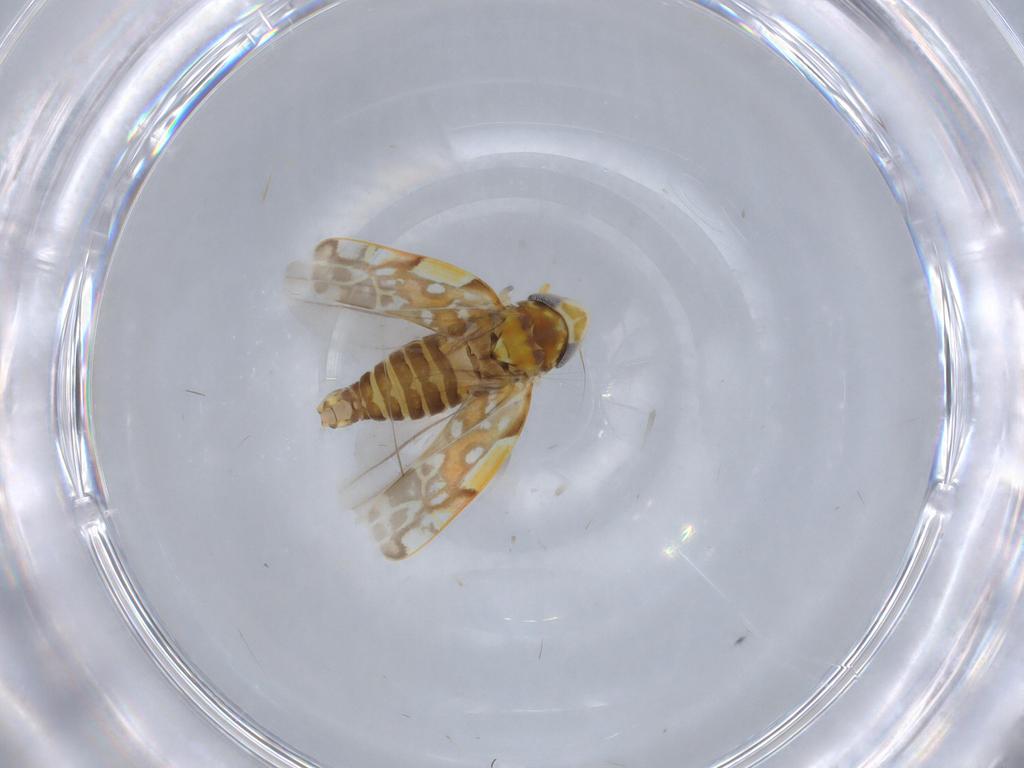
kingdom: Animalia
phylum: Arthropoda
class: Insecta
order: Hemiptera
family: Cicadellidae
